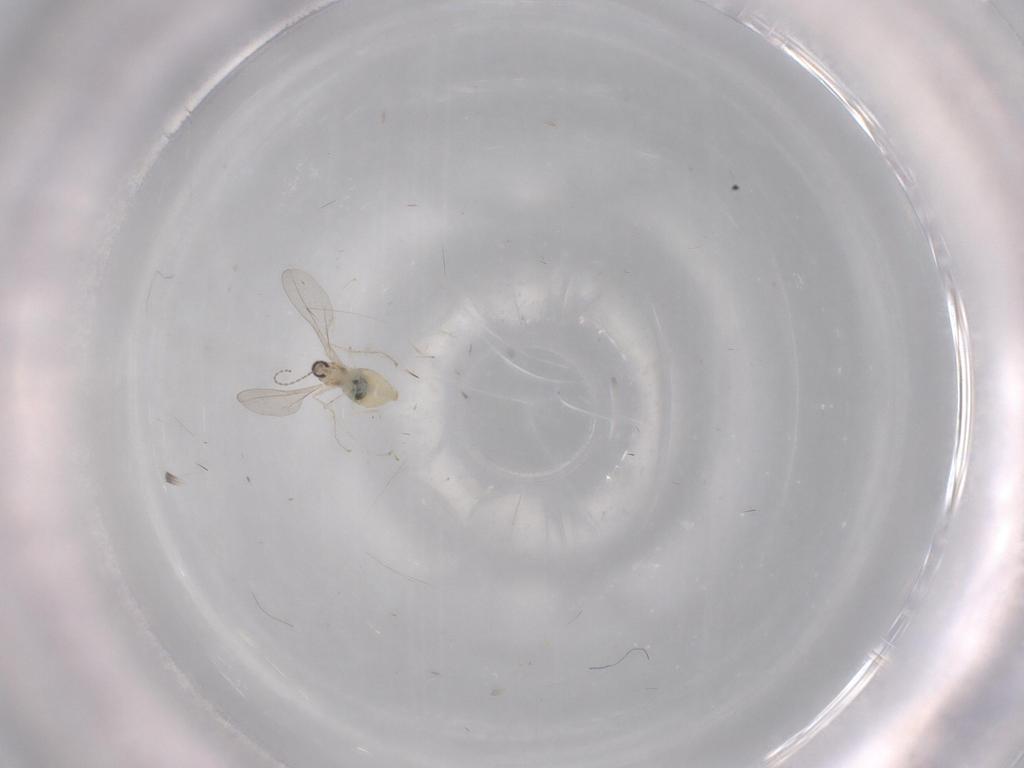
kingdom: Animalia
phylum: Arthropoda
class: Insecta
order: Diptera
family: Cecidomyiidae
